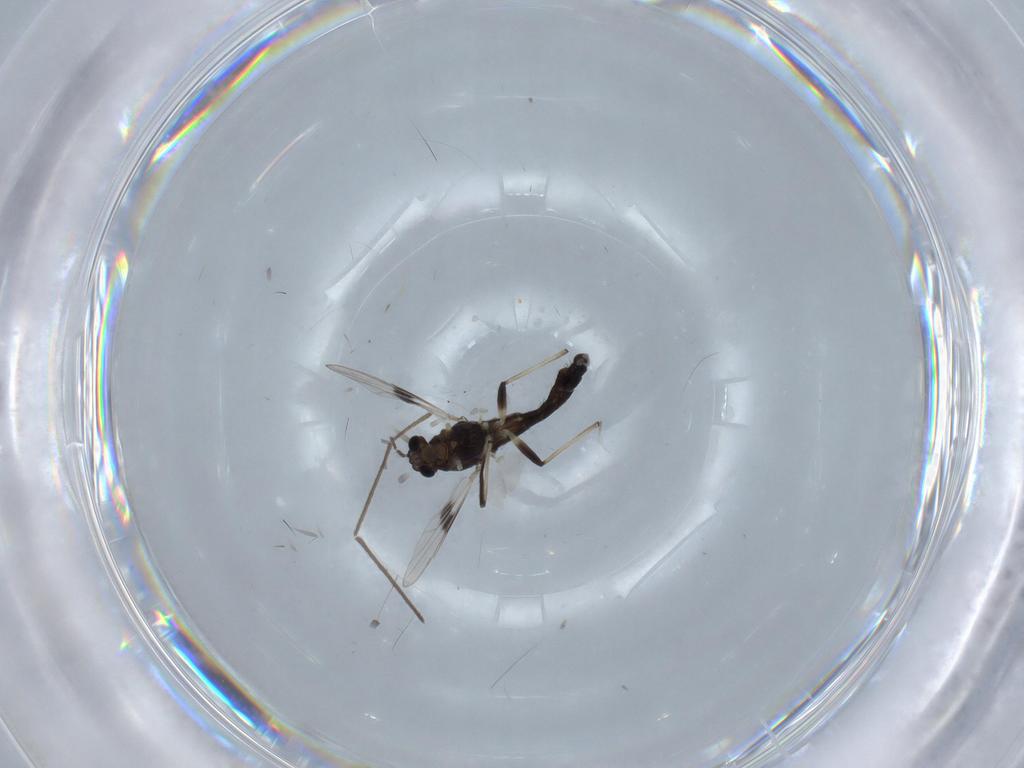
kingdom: Animalia
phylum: Arthropoda
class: Insecta
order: Diptera
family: Chironomidae
